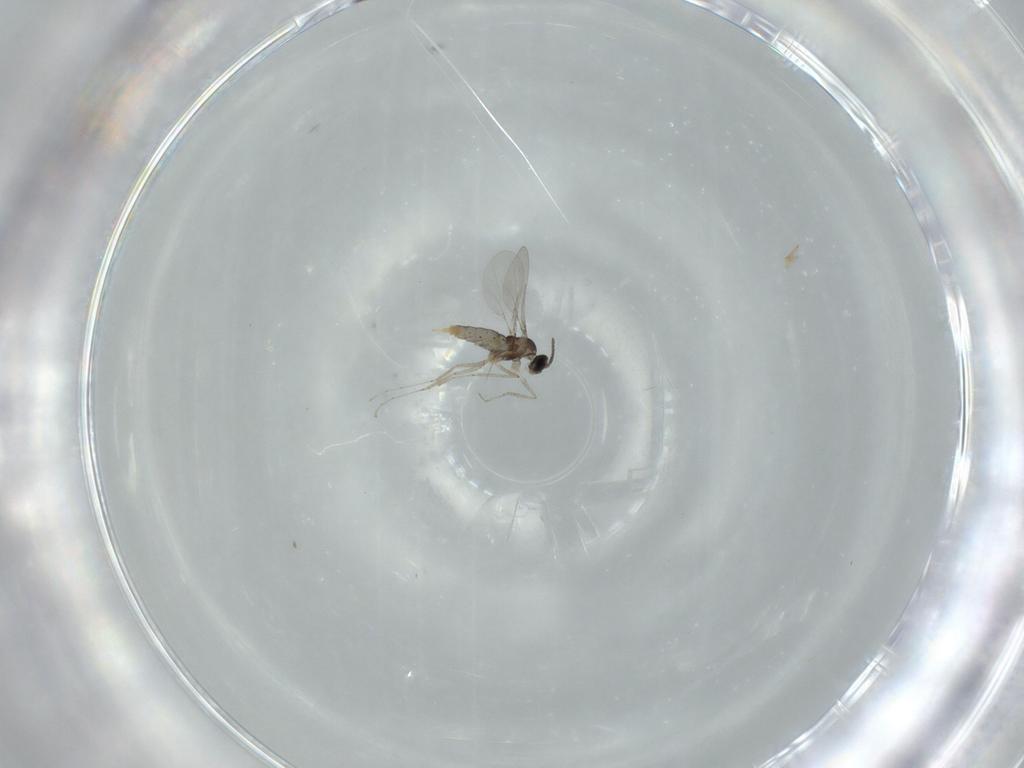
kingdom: Animalia
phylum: Arthropoda
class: Insecta
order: Diptera
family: Cecidomyiidae
